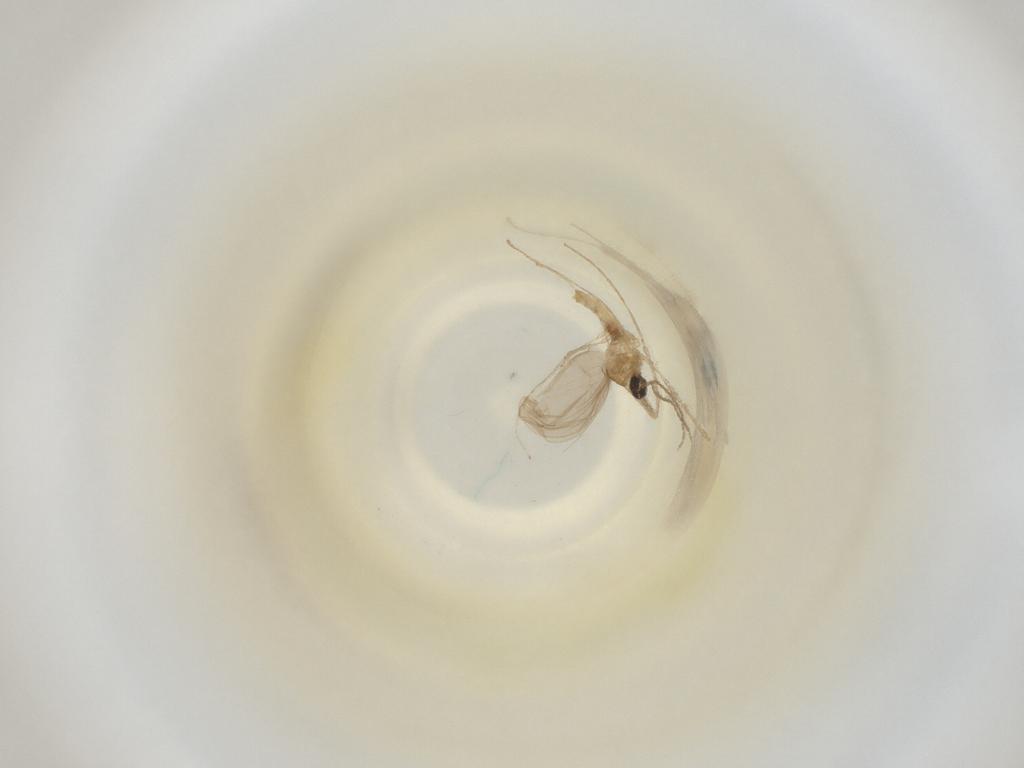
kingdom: Animalia
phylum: Arthropoda
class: Insecta
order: Diptera
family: Cecidomyiidae
